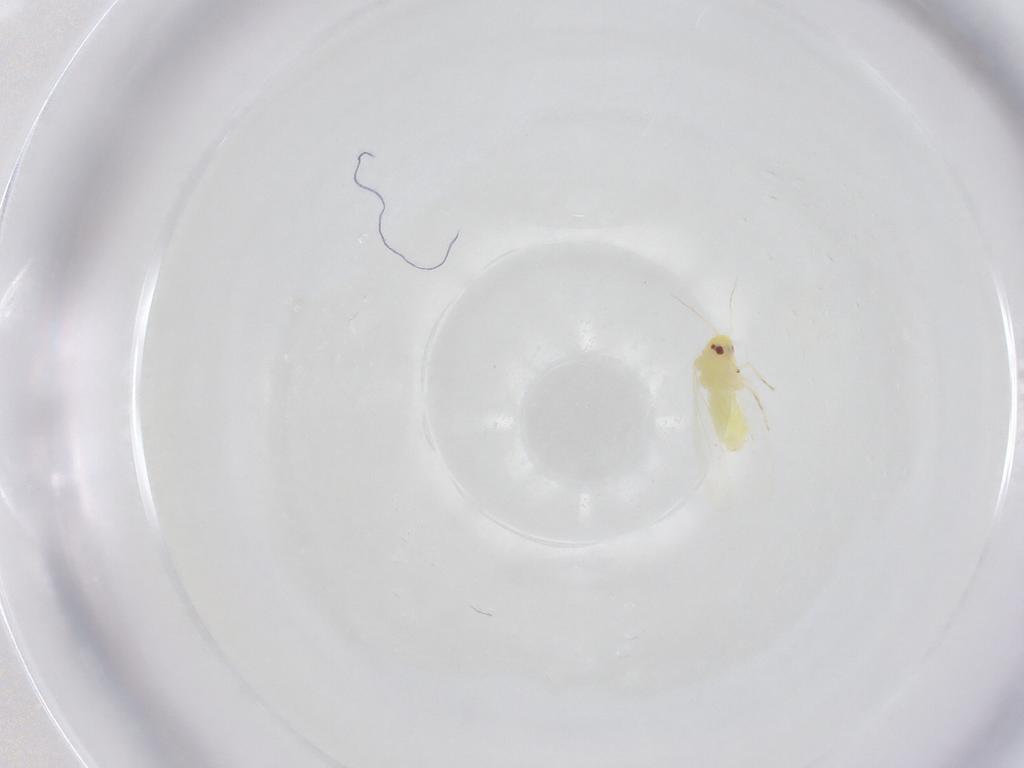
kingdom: Animalia
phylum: Arthropoda
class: Insecta
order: Hemiptera
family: Aleyrodidae
